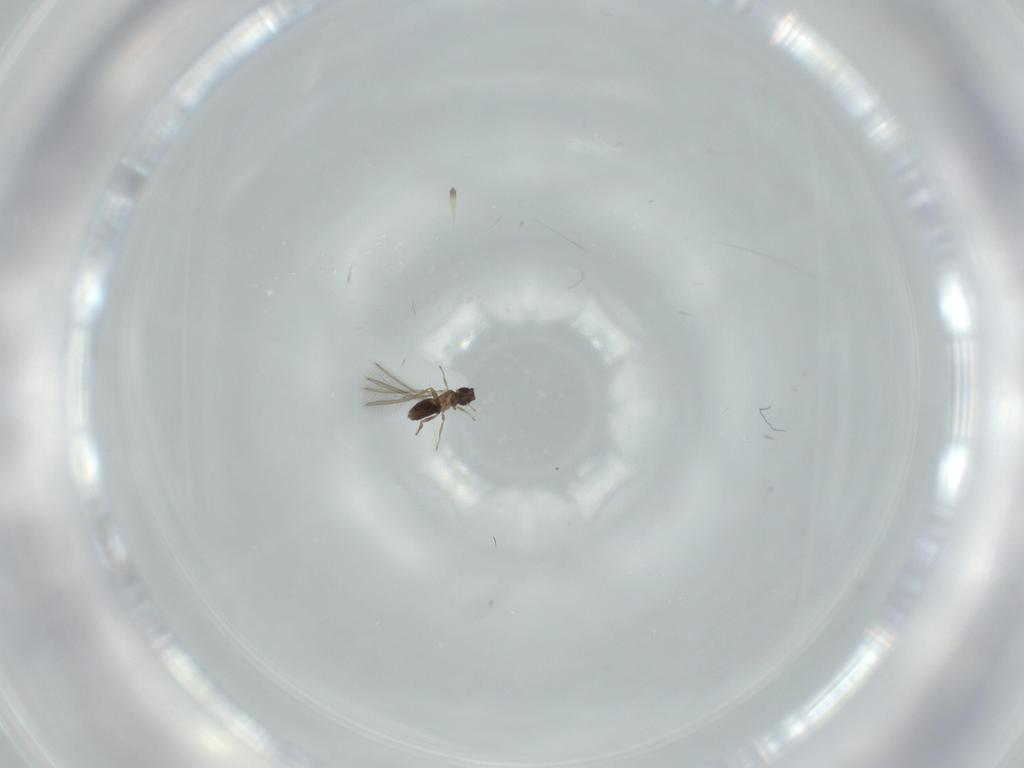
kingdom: Animalia
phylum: Arthropoda
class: Insecta
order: Hymenoptera
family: Mymaridae
